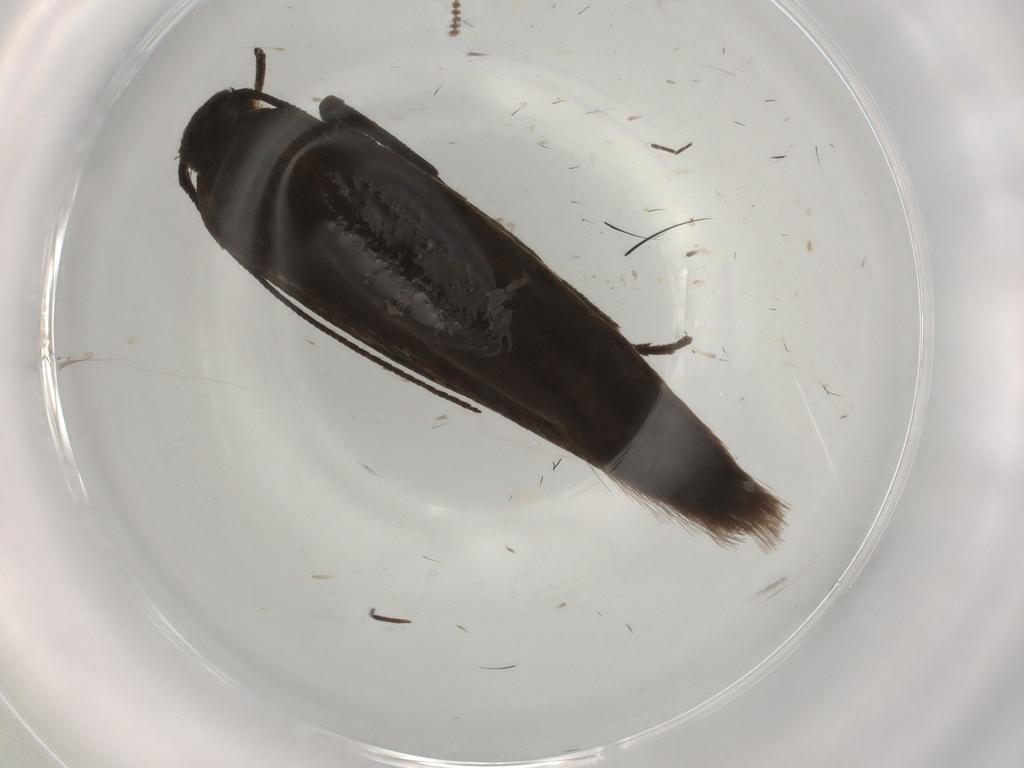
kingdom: Animalia
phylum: Arthropoda
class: Insecta
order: Lepidoptera
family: Scythrididae
